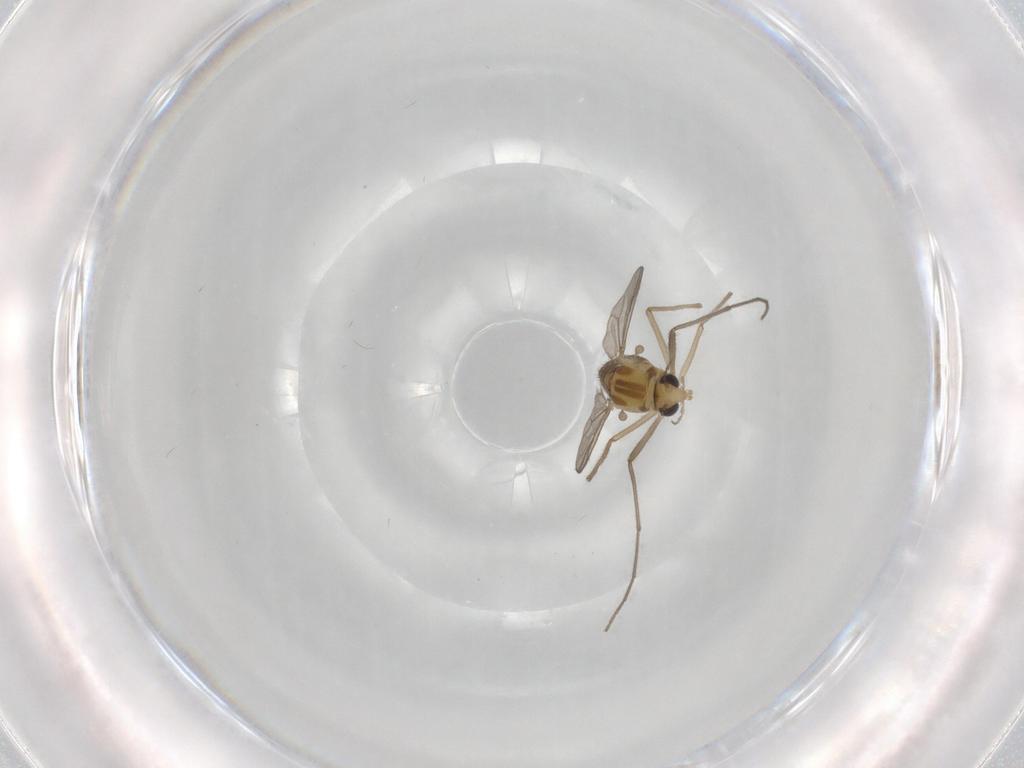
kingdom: Animalia
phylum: Arthropoda
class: Insecta
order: Diptera
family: Chironomidae
